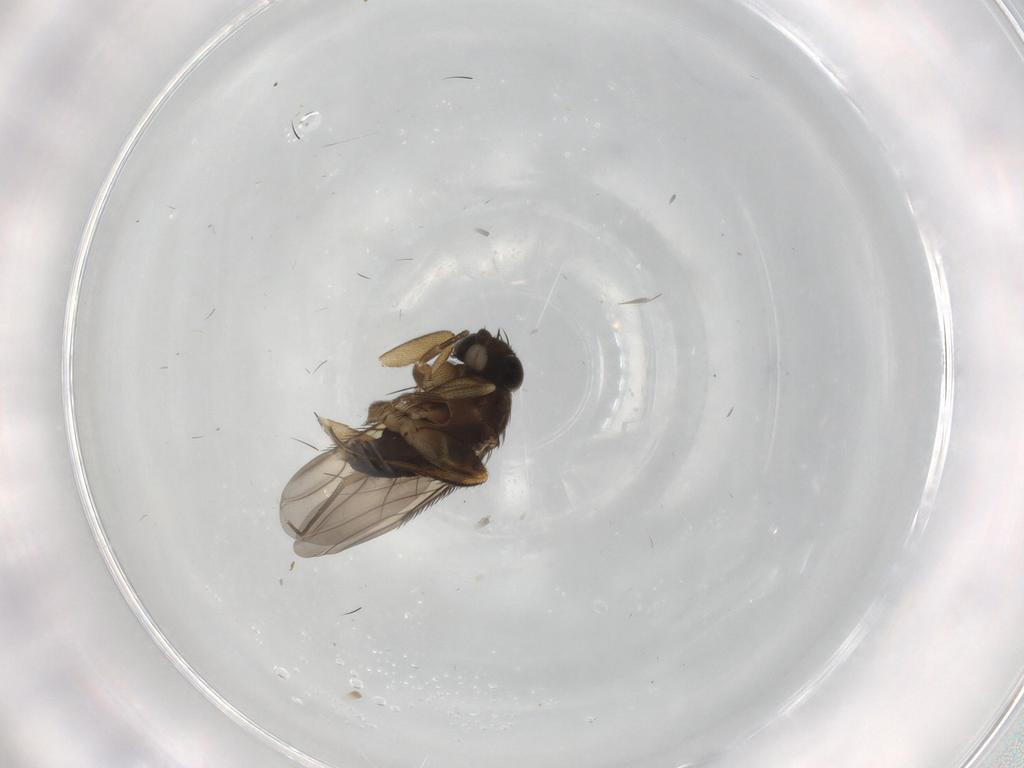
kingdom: Animalia
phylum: Arthropoda
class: Insecta
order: Diptera
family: Phoridae
